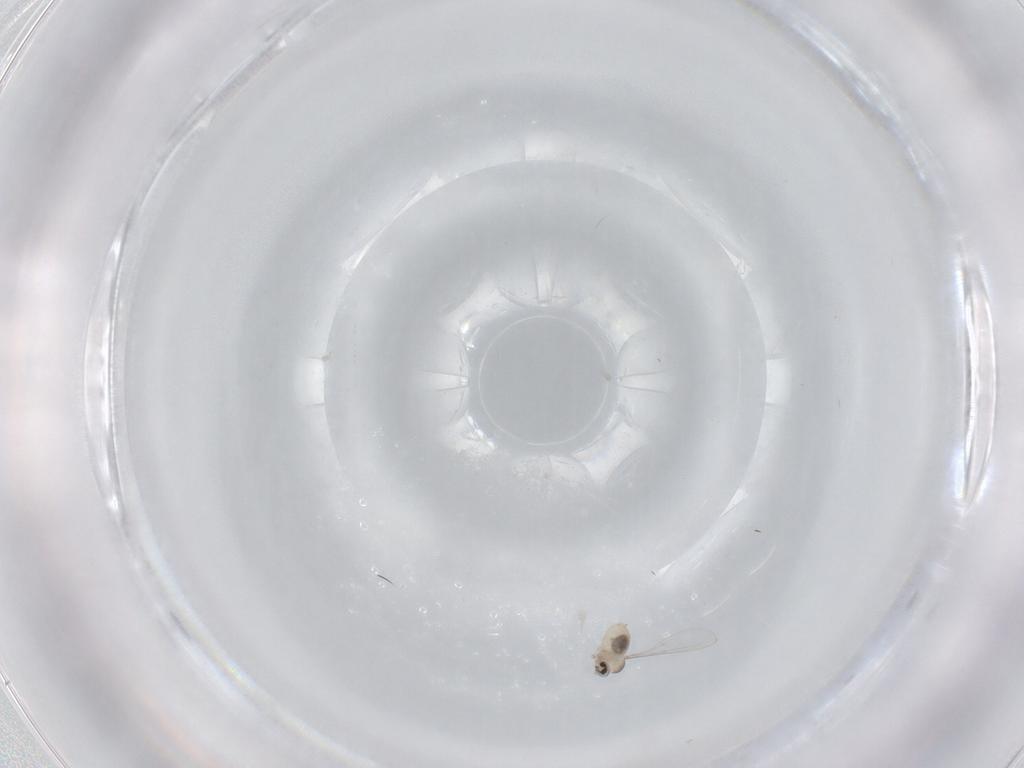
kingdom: Animalia
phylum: Arthropoda
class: Insecta
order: Diptera
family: Cecidomyiidae
